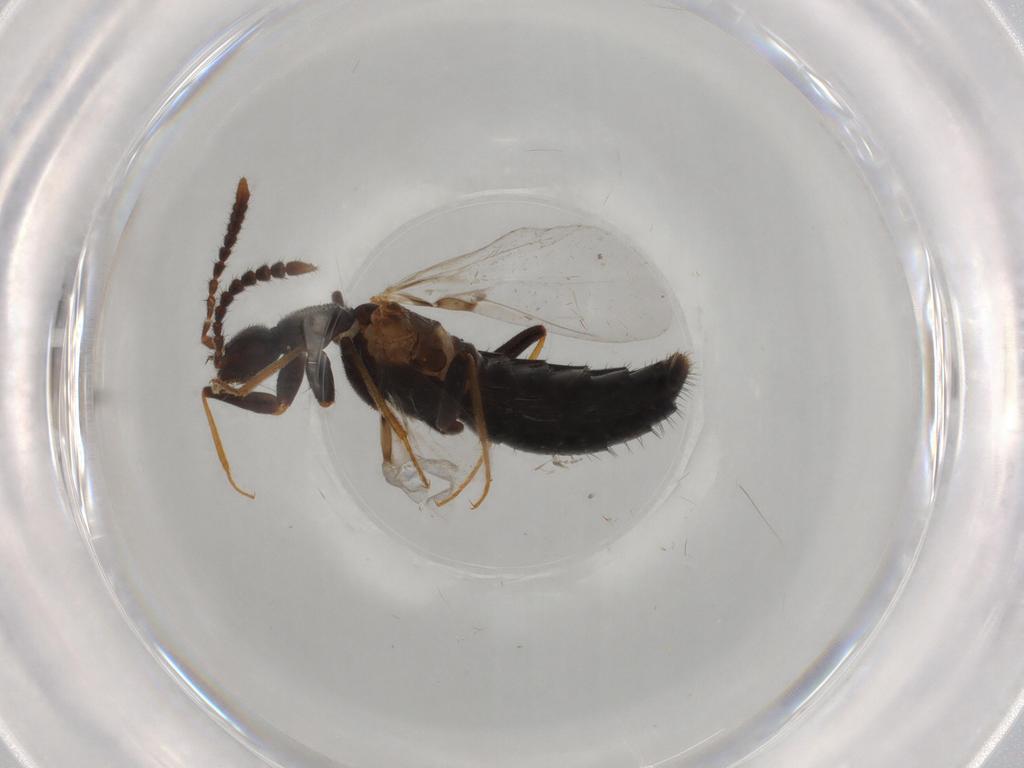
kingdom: Animalia
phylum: Arthropoda
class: Insecta
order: Coleoptera
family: Staphylinidae
